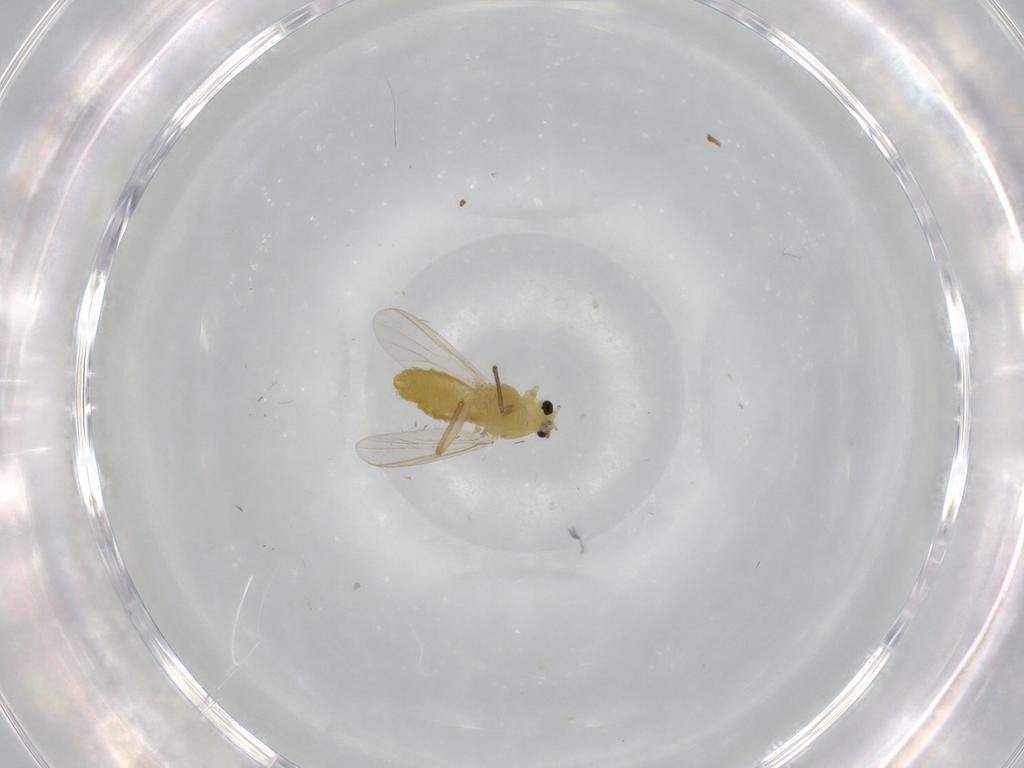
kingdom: Animalia
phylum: Arthropoda
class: Insecta
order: Diptera
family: Chironomidae
